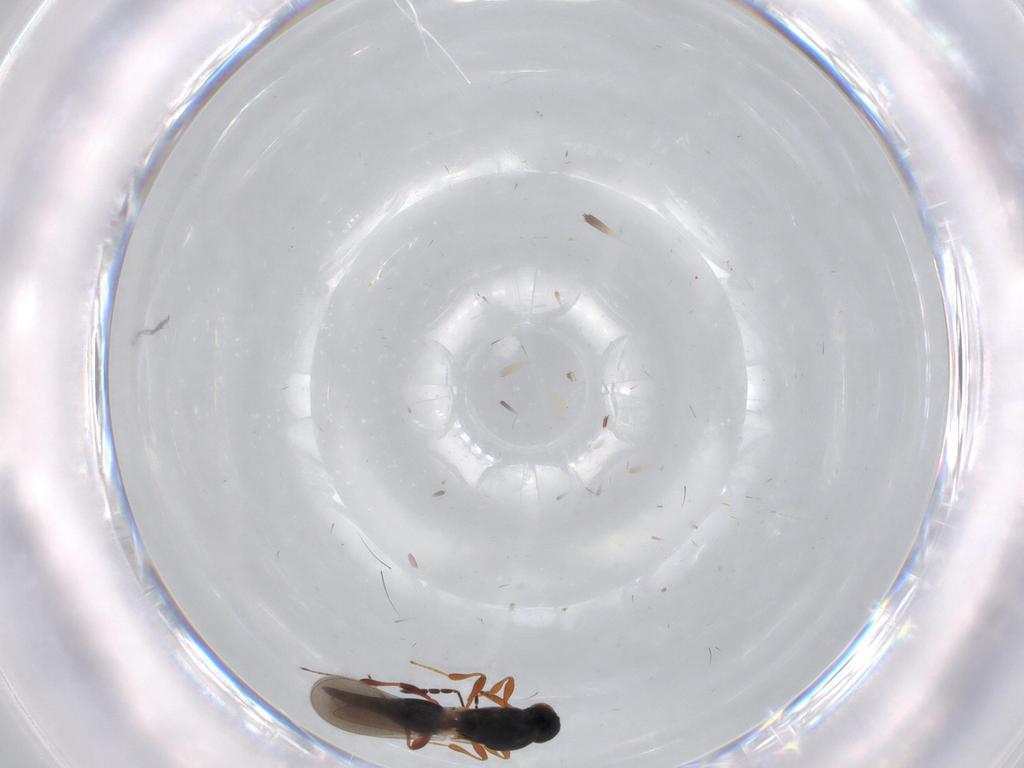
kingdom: Animalia
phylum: Arthropoda
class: Insecta
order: Hymenoptera
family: Platygastridae
